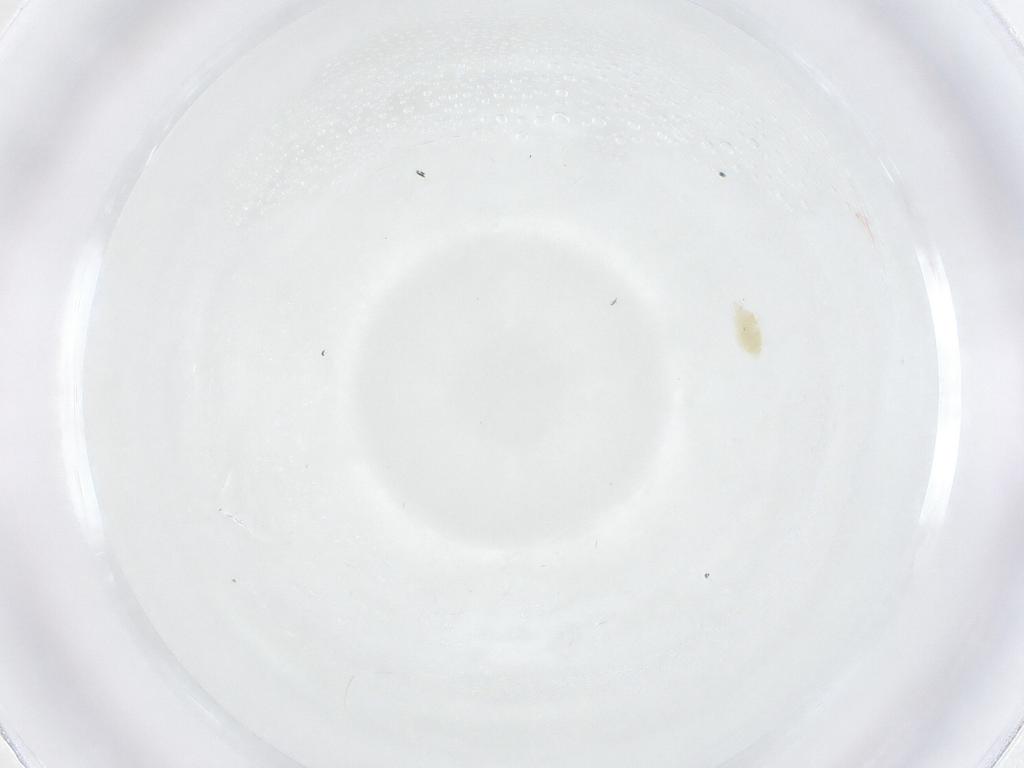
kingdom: Animalia
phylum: Arthropoda
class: Arachnida
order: Trombidiformes
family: Eupodidae
